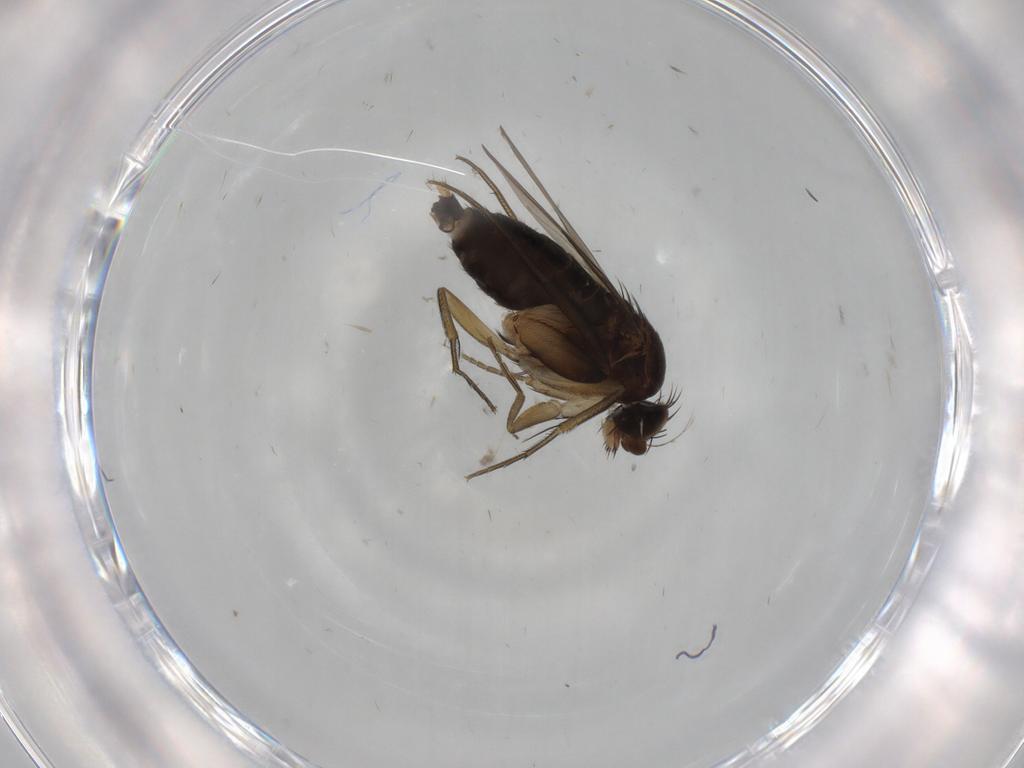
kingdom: Animalia
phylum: Arthropoda
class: Insecta
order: Diptera
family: Phoridae
